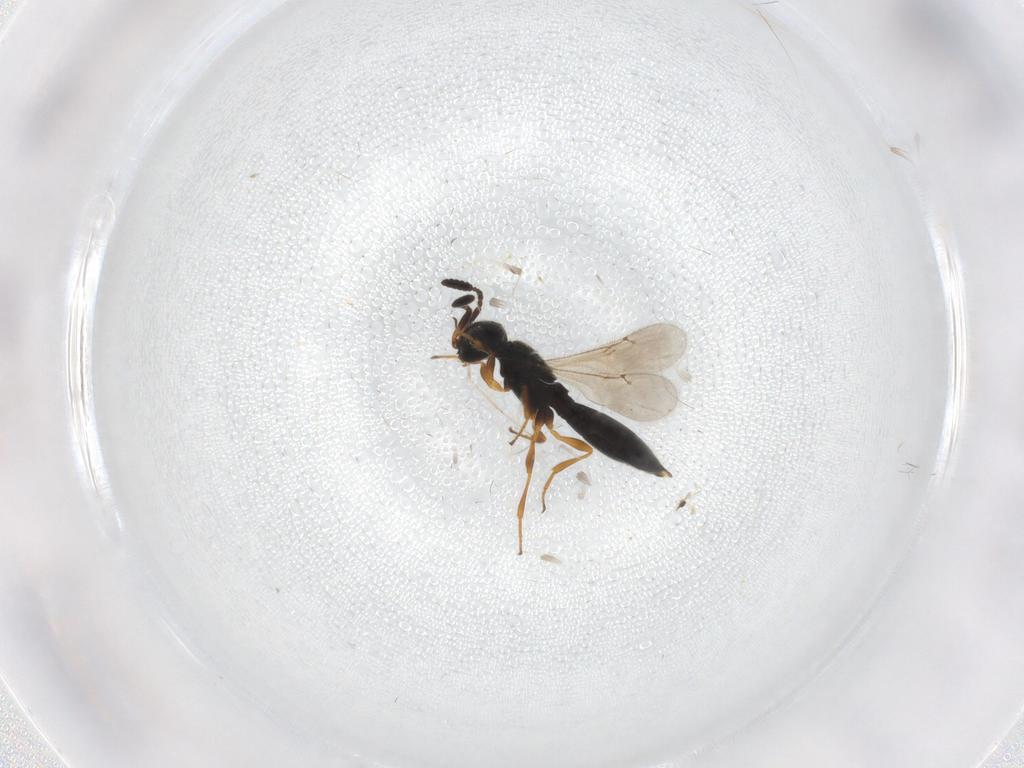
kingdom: Animalia
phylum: Arthropoda
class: Insecta
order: Hymenoptera
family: Scelionidae
